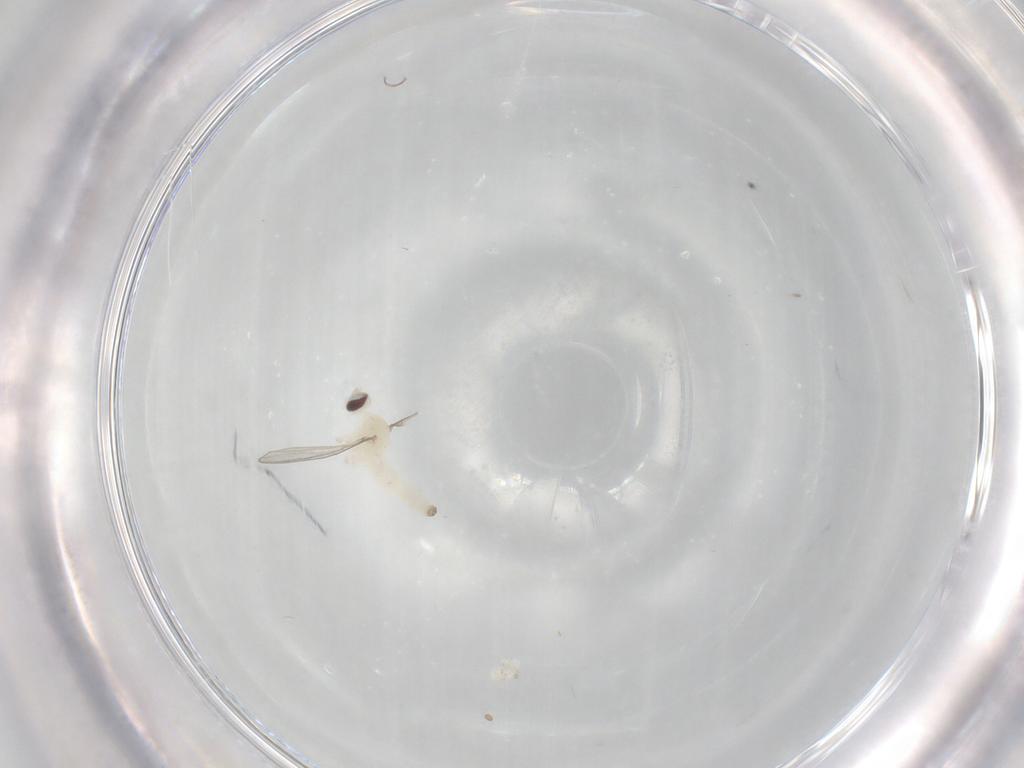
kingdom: Animalia
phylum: Arthropoda
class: Insecta
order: Diptera
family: Cecidomyiidae
